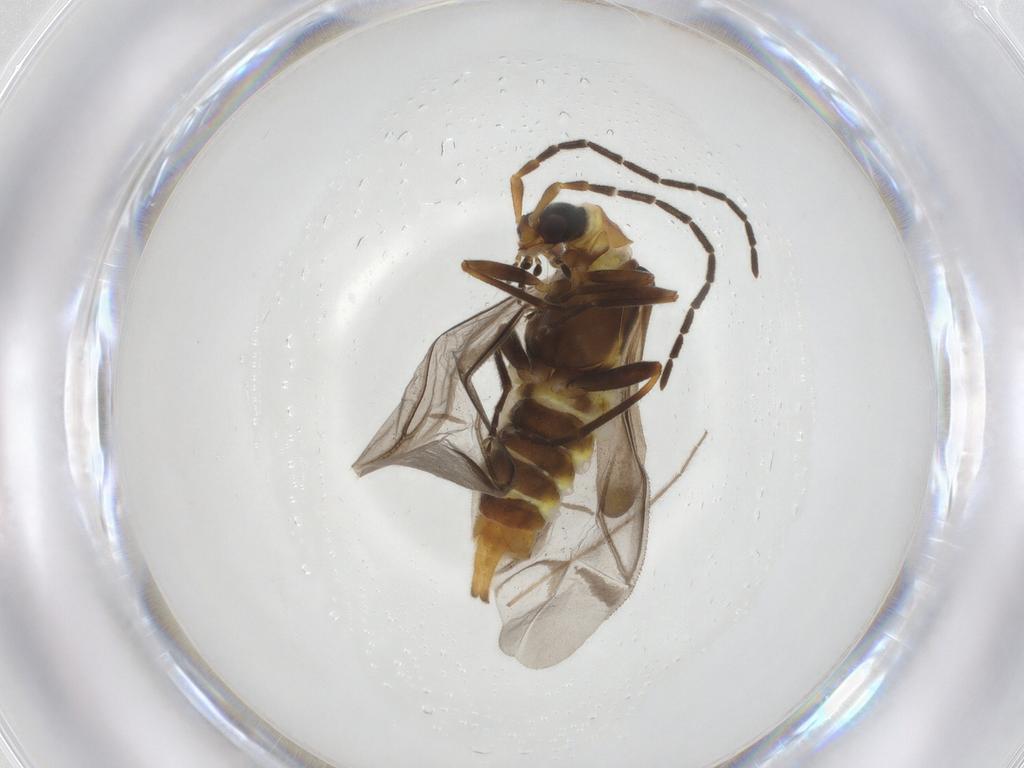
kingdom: Animalia
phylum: Arthropoda
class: Insecta
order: Coleoptera
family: Cantharidae
